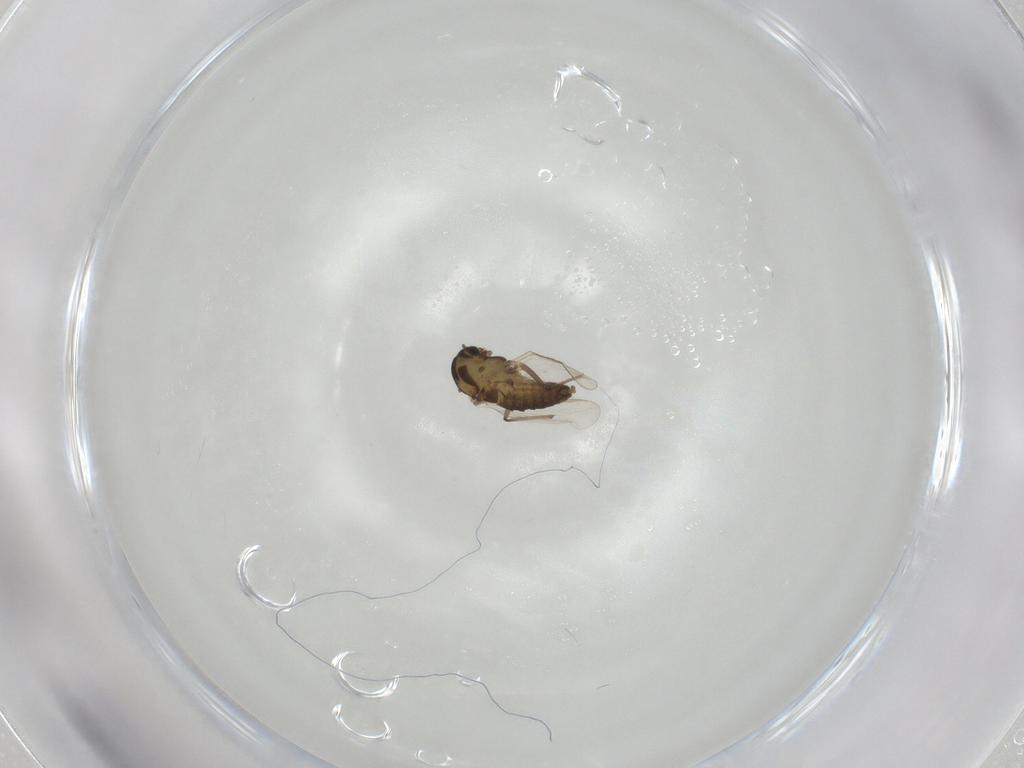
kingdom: Animalia
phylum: Arthropoda
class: Insecta
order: Diptera
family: Chironomidae
